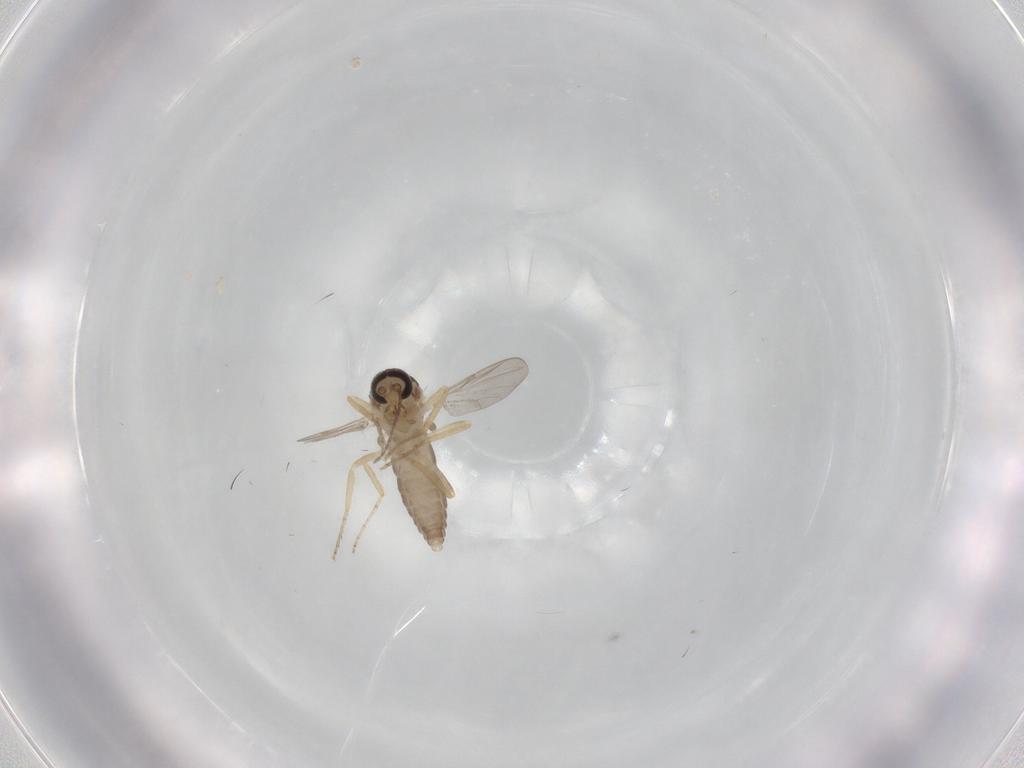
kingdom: Animalia
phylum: Arthropoda
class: Insecta
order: Diptera
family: Ceratopogonidae
